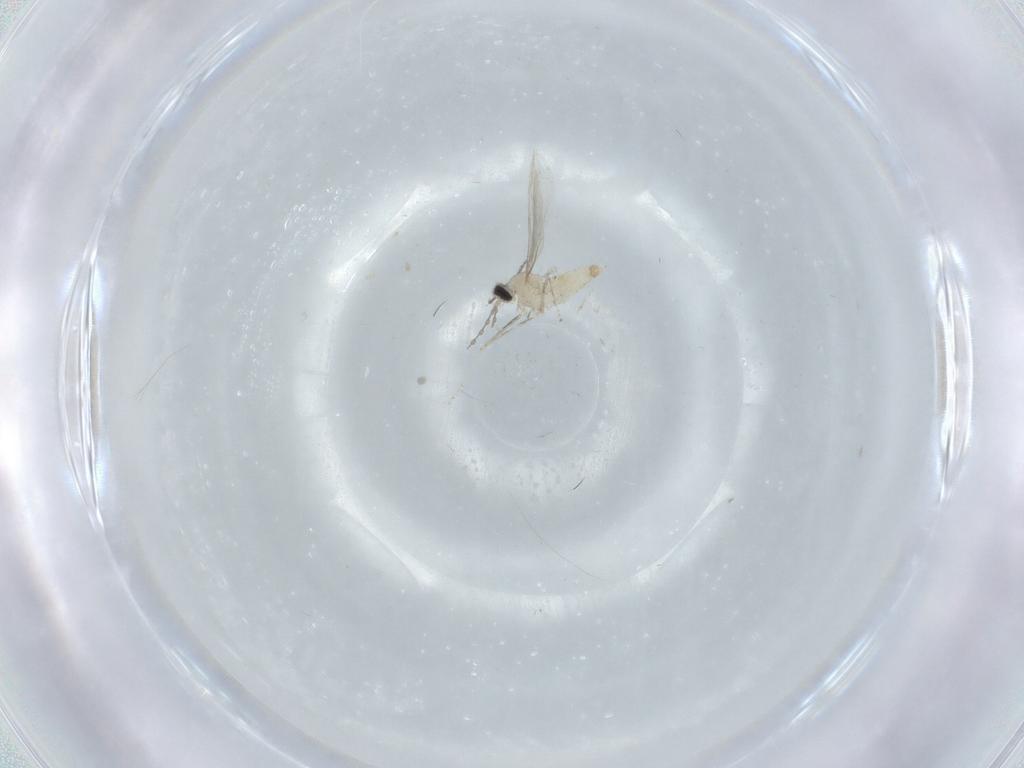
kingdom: Animalia
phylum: Arthropoda
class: Insecta
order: Diptera
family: Cecidomyiidae
